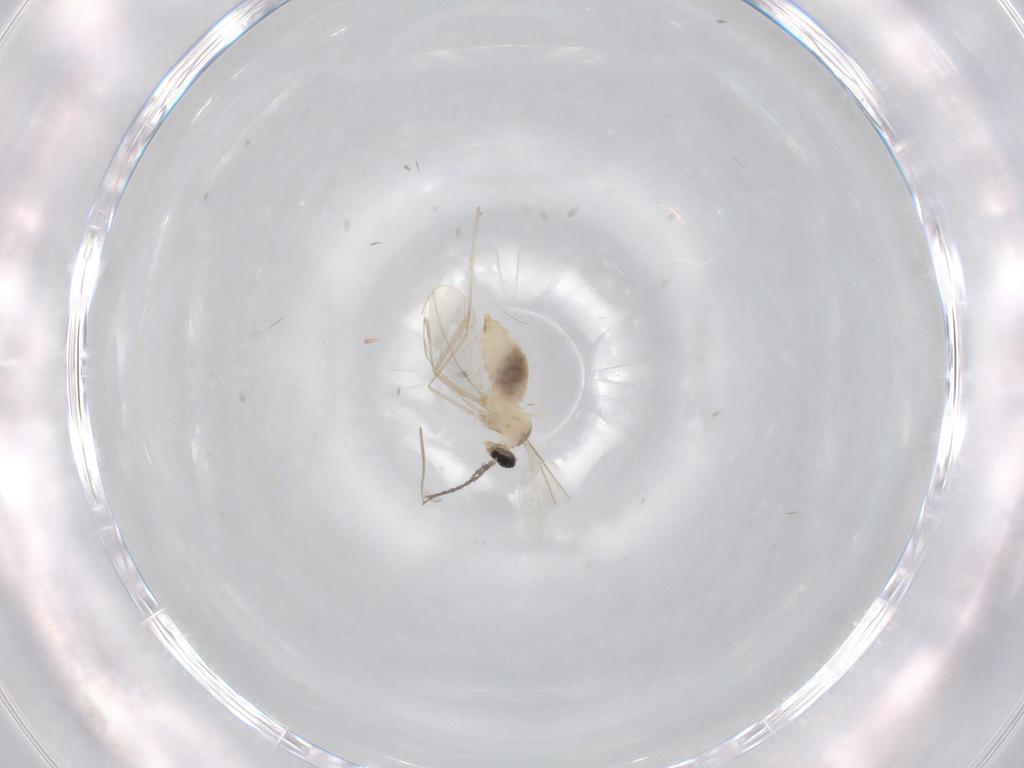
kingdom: Animalia
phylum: Arthropoda
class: Insecta
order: Diptera
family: Cecidomyiidae
